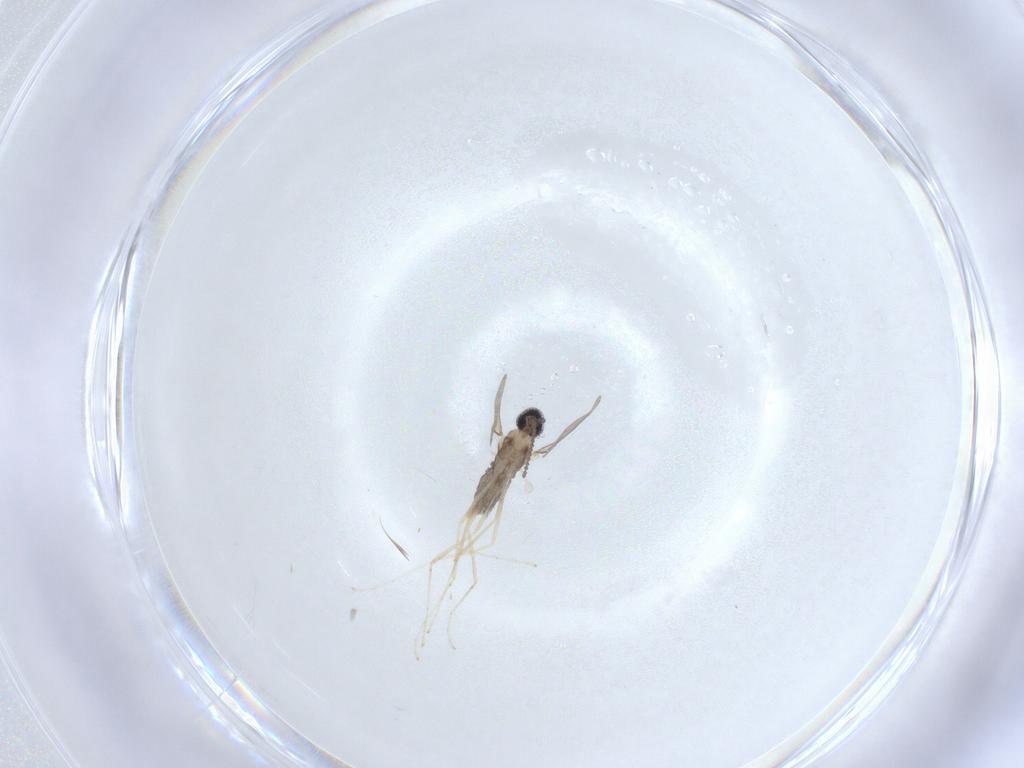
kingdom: Animalia
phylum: Arthropoda
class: Insecta
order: Diptera
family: Cecidomyiidae
